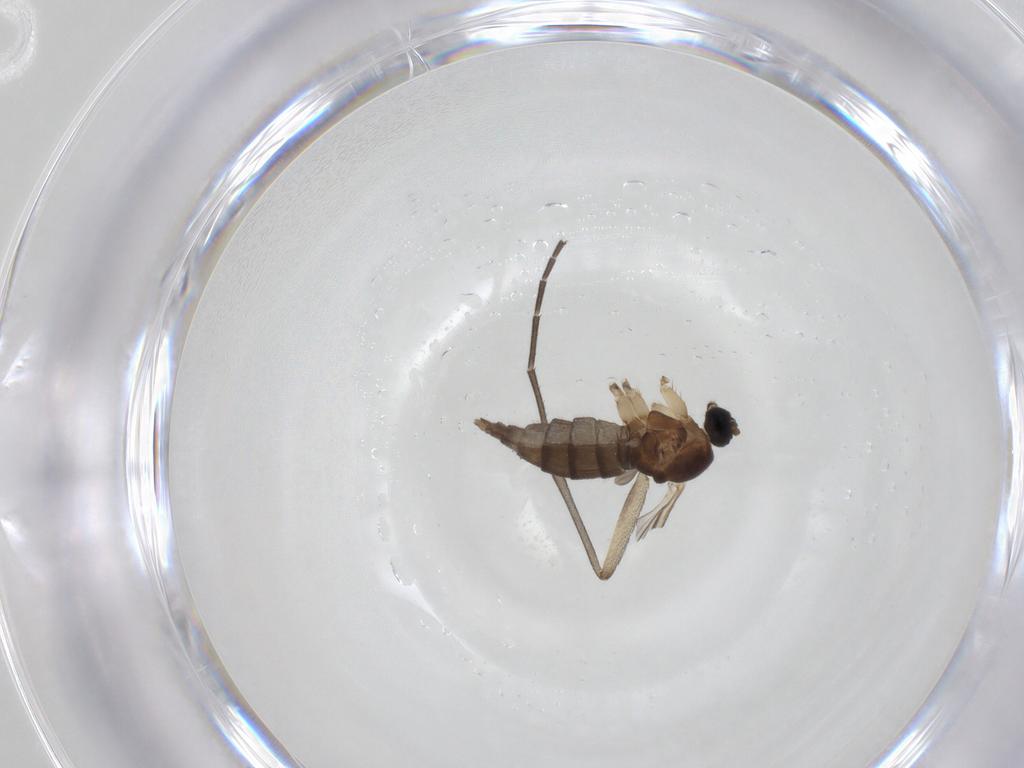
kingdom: Animalia
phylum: Arthropoda
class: Insecta
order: Diptera
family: Sciaridae
